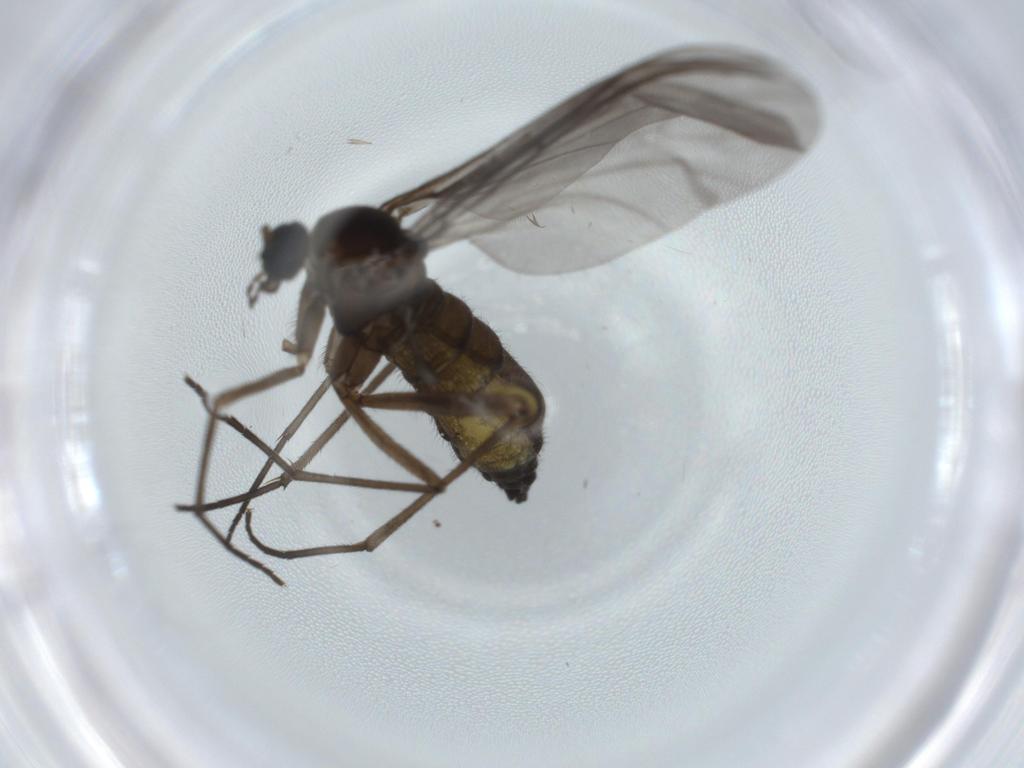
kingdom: Animalia
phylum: Arthropoda
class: Insecta
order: Diptera
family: Sciaridae
